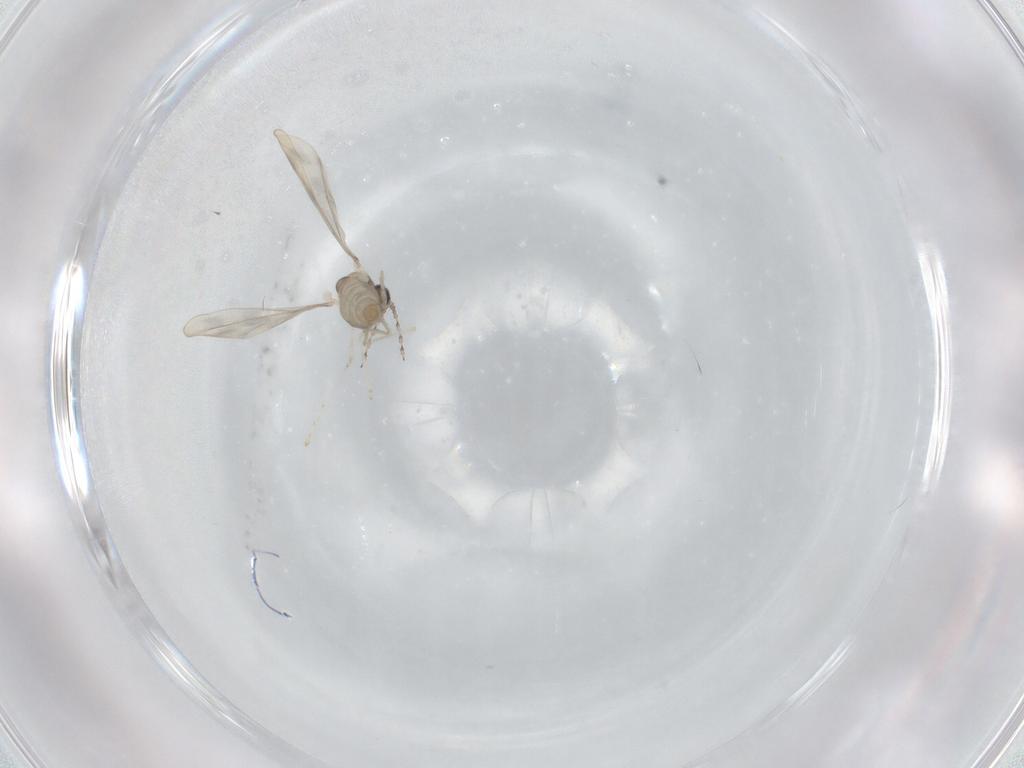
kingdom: Animalia
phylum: Arthropoda
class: Insecta
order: Diptera
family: Cecidomyiidae
